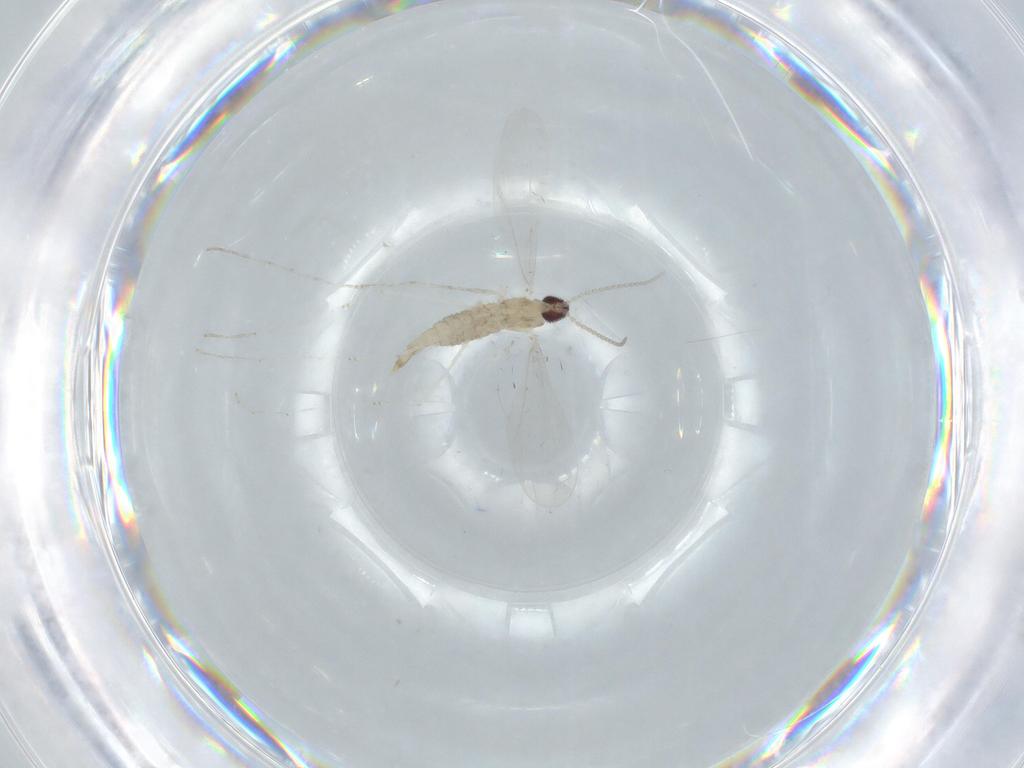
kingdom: Animalia
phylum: Arthropoda
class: Insecta
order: Diptera
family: Cecidomyiidae
